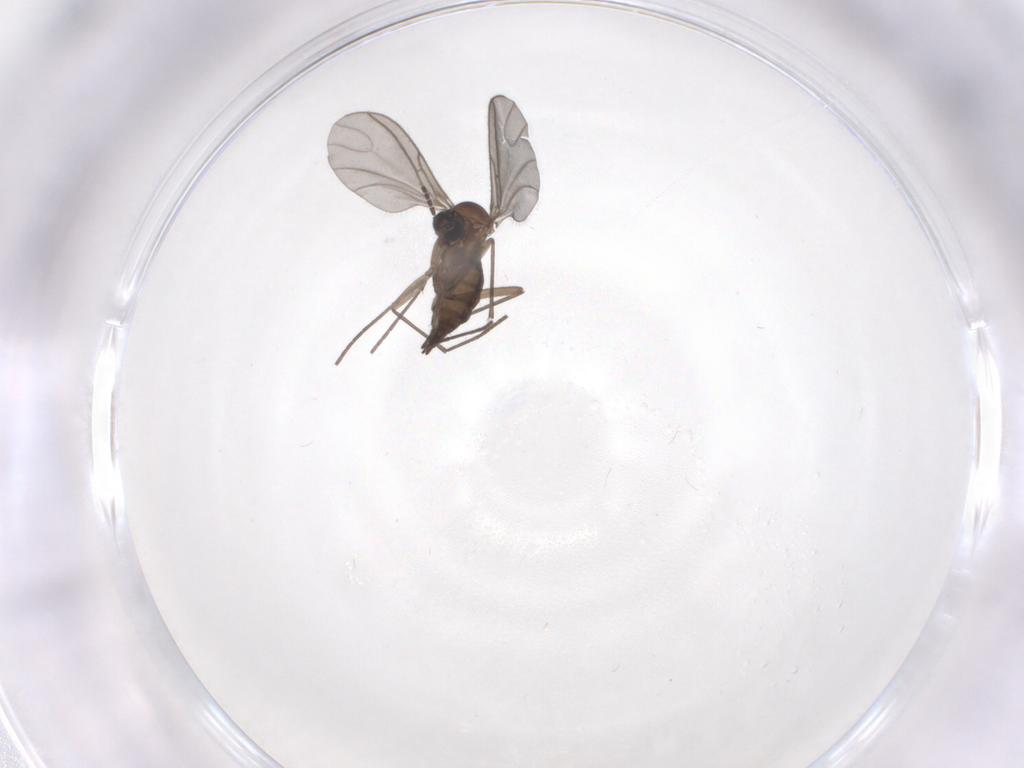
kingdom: Animalia
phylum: Arthropoda
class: Insecta
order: Diptera
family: Sciaridae
